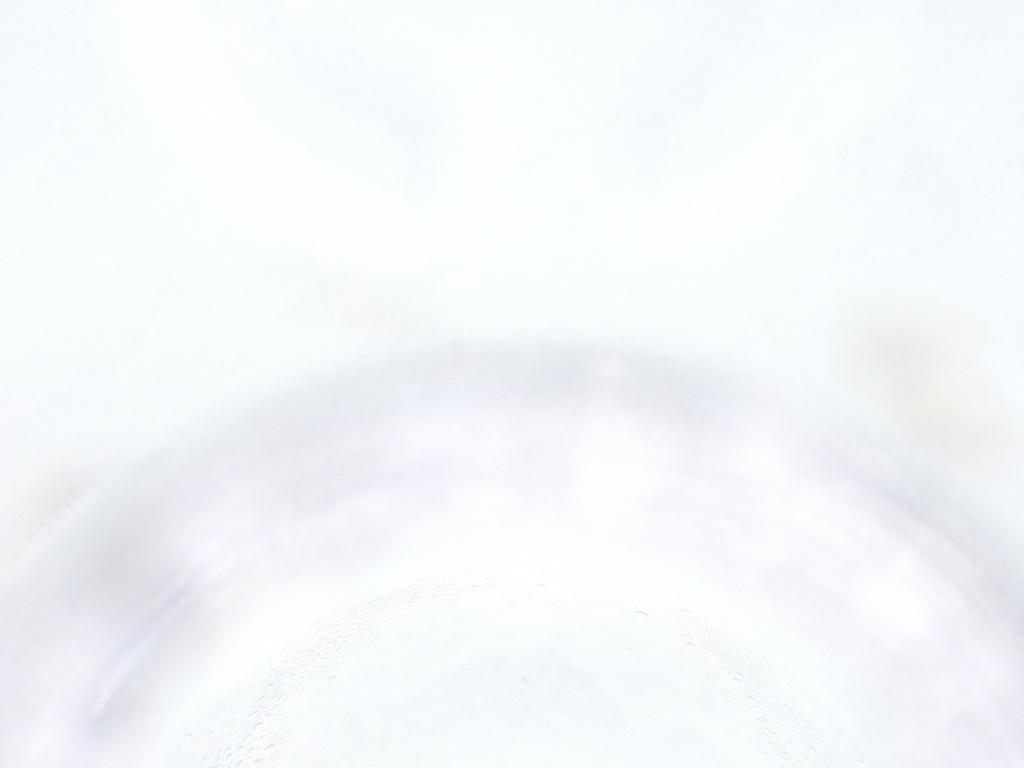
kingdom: Animalia
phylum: Arthropoda
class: Insecta
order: Diptera
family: Cecidomyiidae
